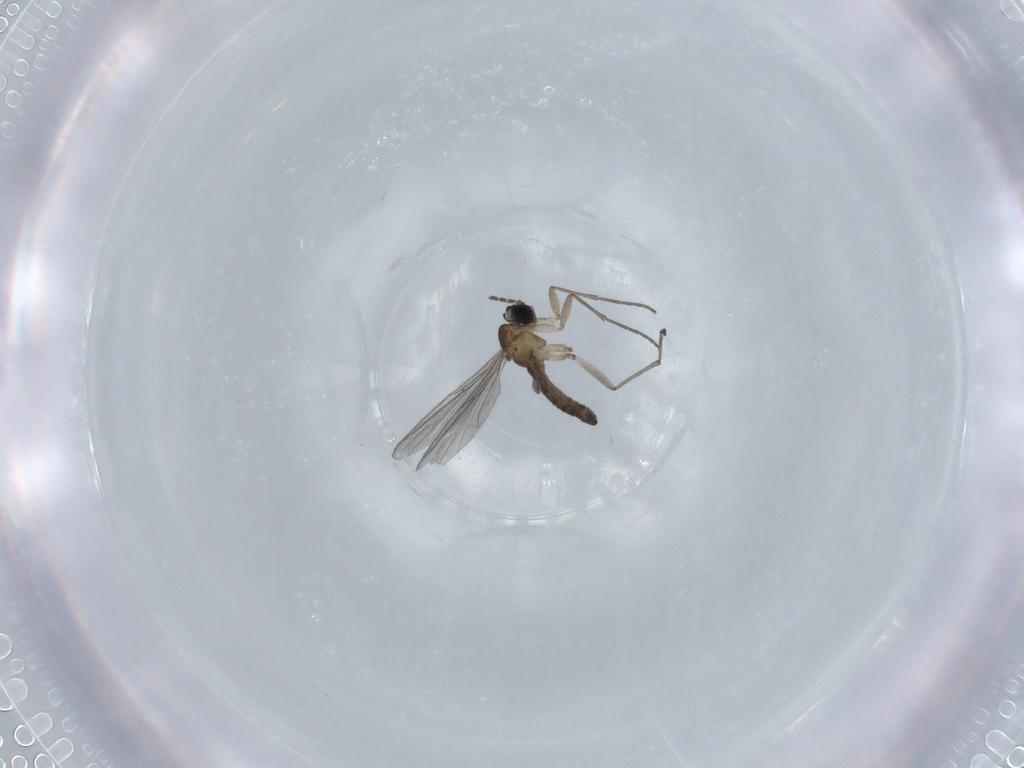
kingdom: Animalia
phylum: Arthropoda
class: Insecta
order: Diptera
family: Sciaridae
